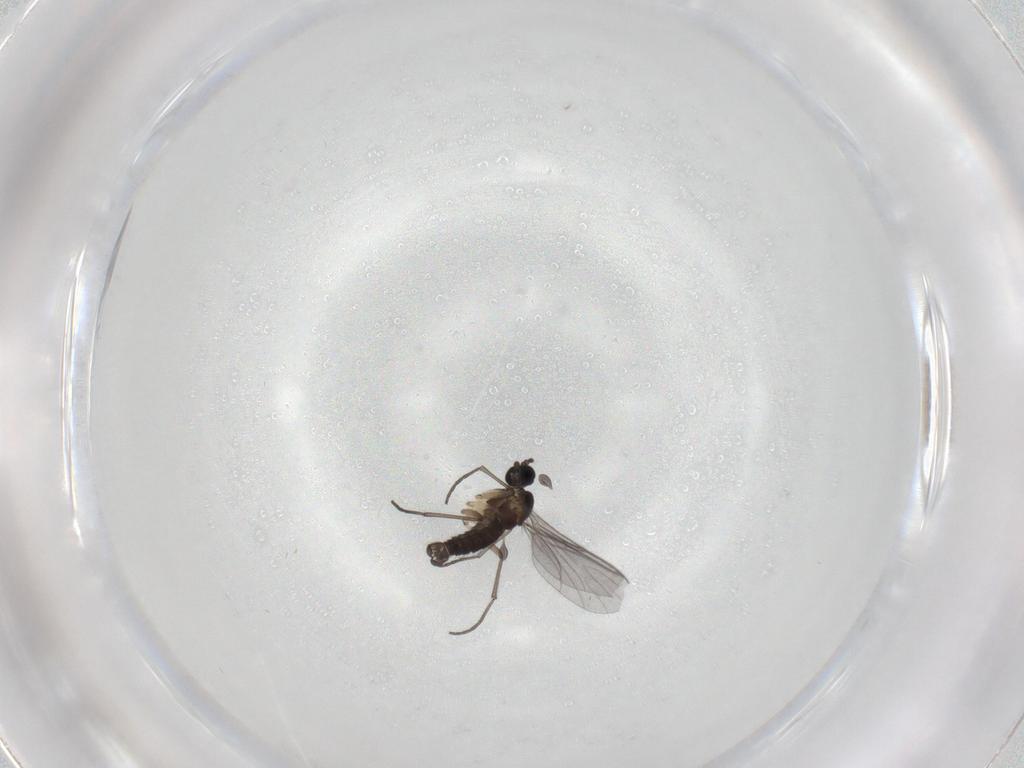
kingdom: Animalia
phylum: Arthropoda
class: Insecta
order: Diptera
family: Sciaridae
